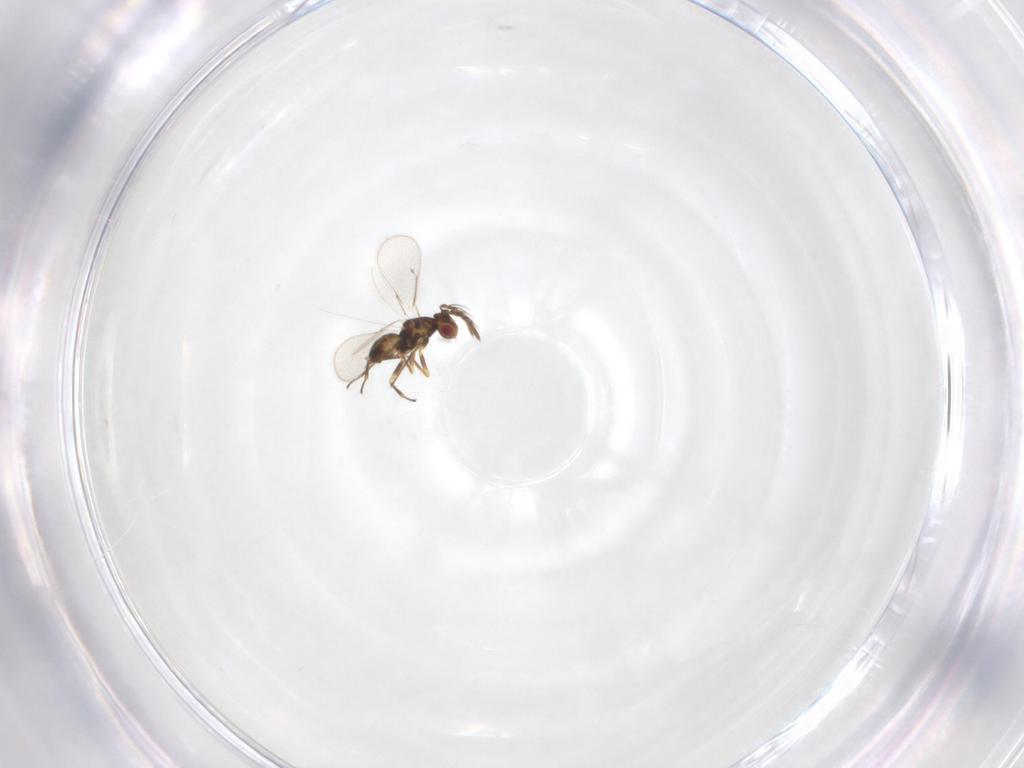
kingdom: Animalia
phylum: Arthropoda
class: Insecta
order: Hymenoptera
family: Eulophidae
